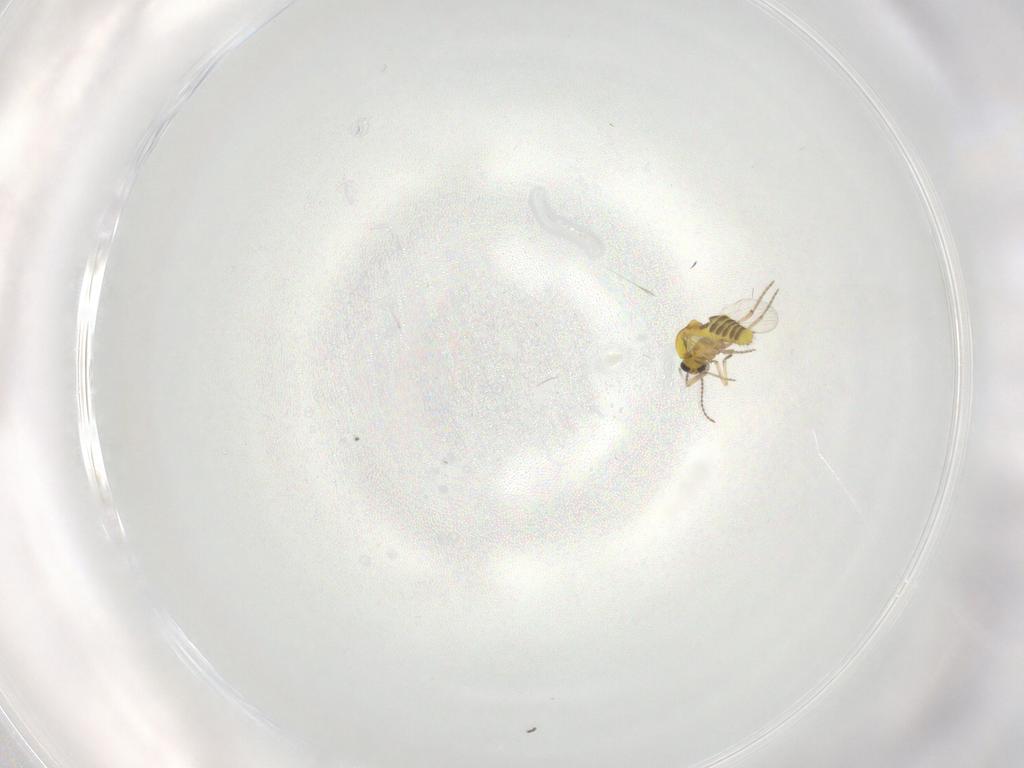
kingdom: Animalia
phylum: Arthropoda
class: Insecta
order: Diptera
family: Ceratopogonidae
